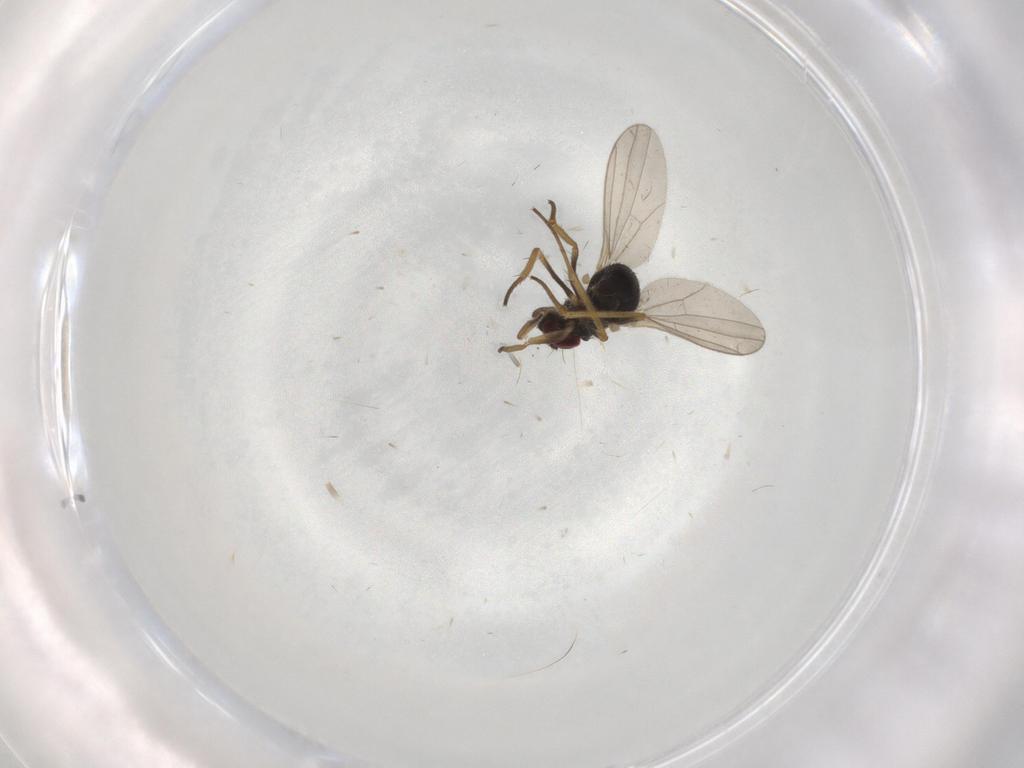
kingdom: Animalia
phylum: Arthropoda
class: Insecta
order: Diptera
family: Dolichopodidae
